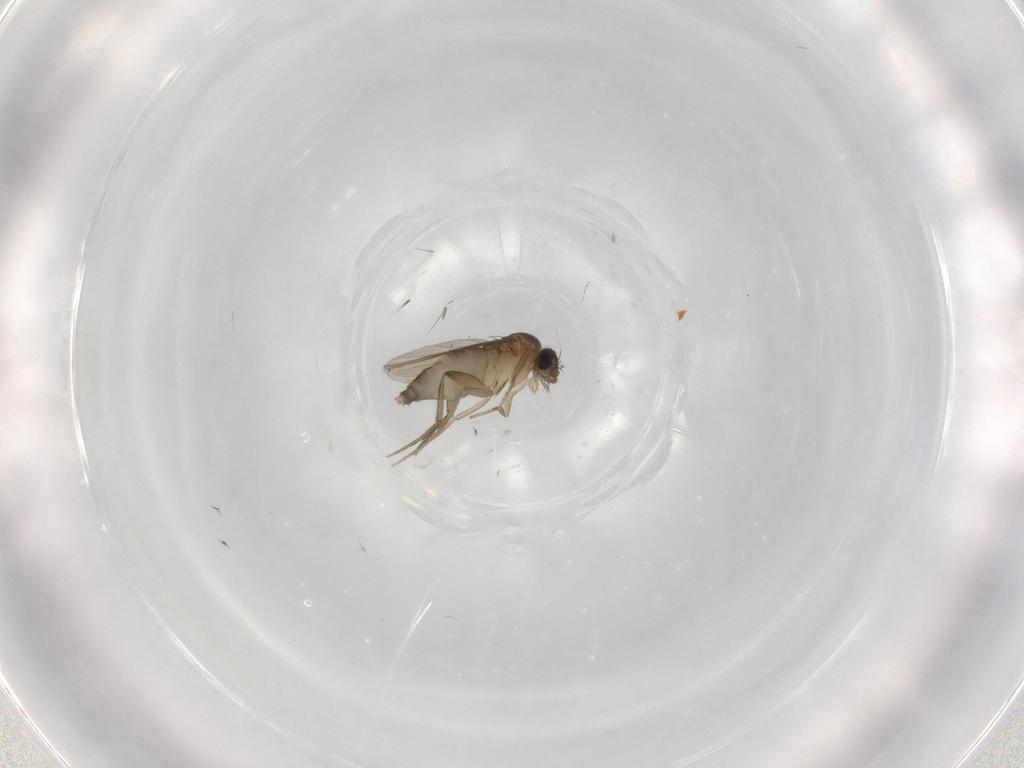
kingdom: Animalia
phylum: Arthropoda
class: Insecta
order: Diptera
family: Phoridae
